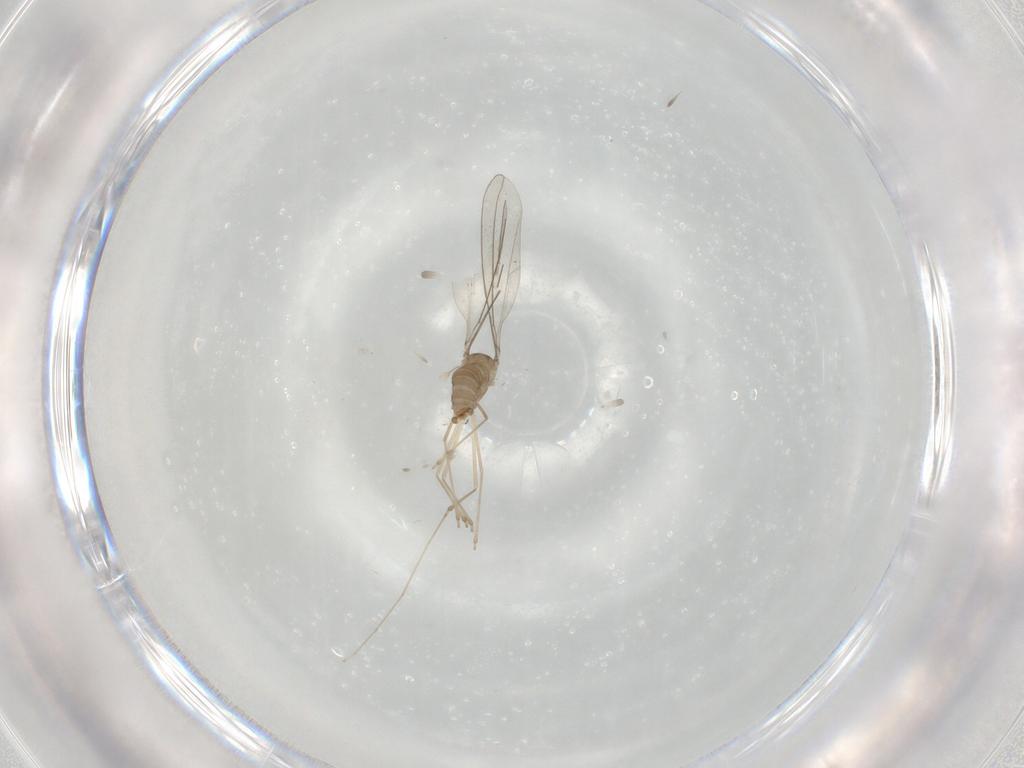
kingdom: Animalia
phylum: Arthropoda
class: Insecta
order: Diptera
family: Cecidomyiidae
